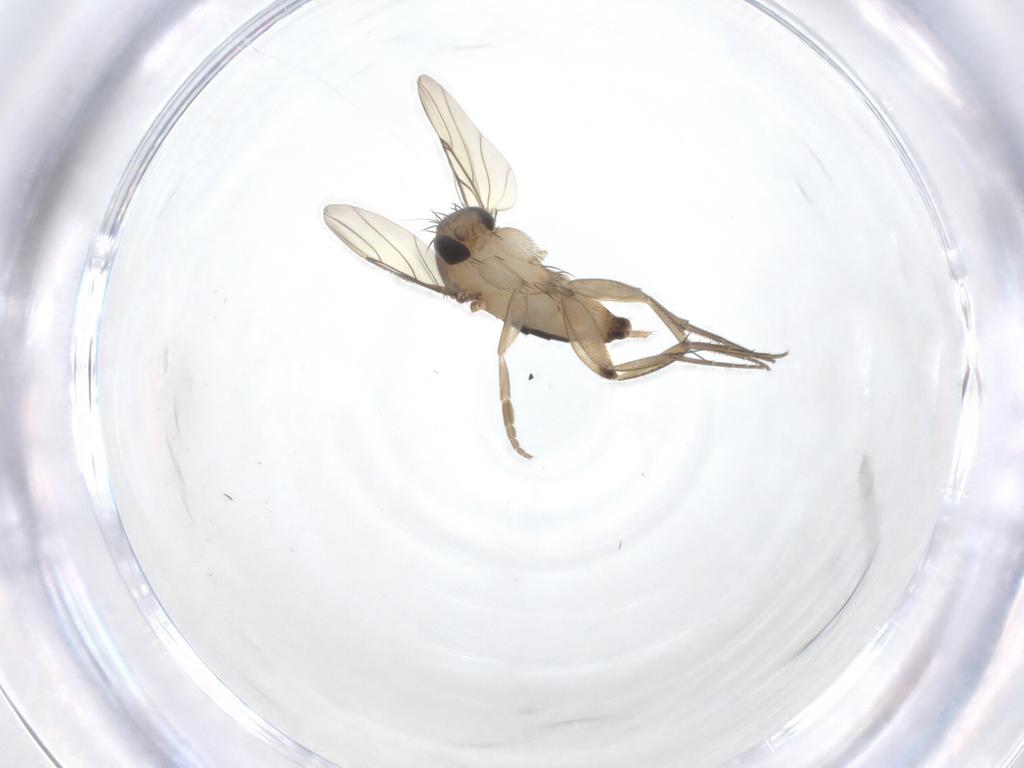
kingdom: Animalia
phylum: Arthropoda
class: Insecta
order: Diptera
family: Phoridae
